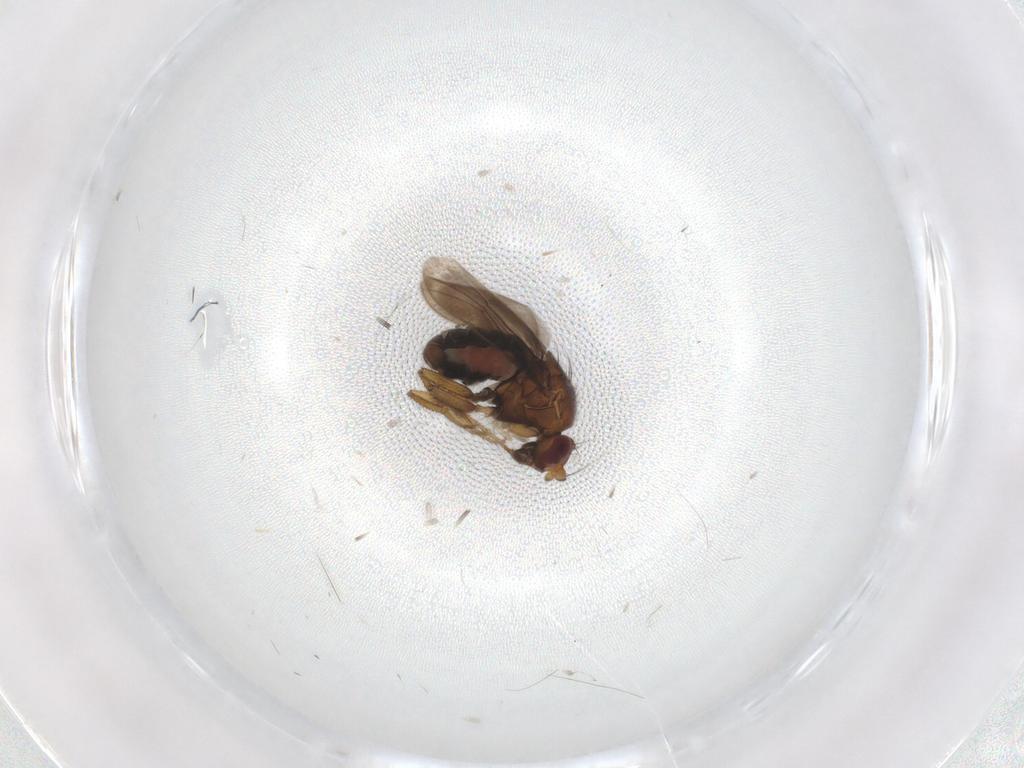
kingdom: Animalia
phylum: Arthropoda
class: Insecta
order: Diptera
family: Sphaeroceridae
